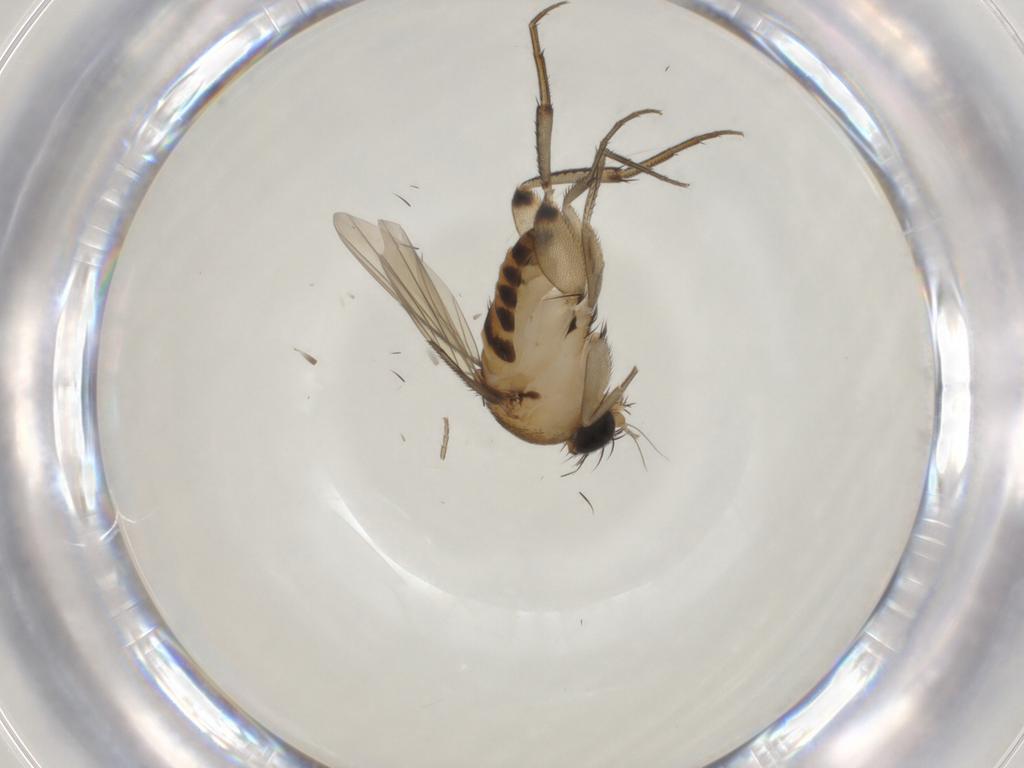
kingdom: Animalia
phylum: Arthropoda
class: Insecta
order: Diptera
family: Phoridae
